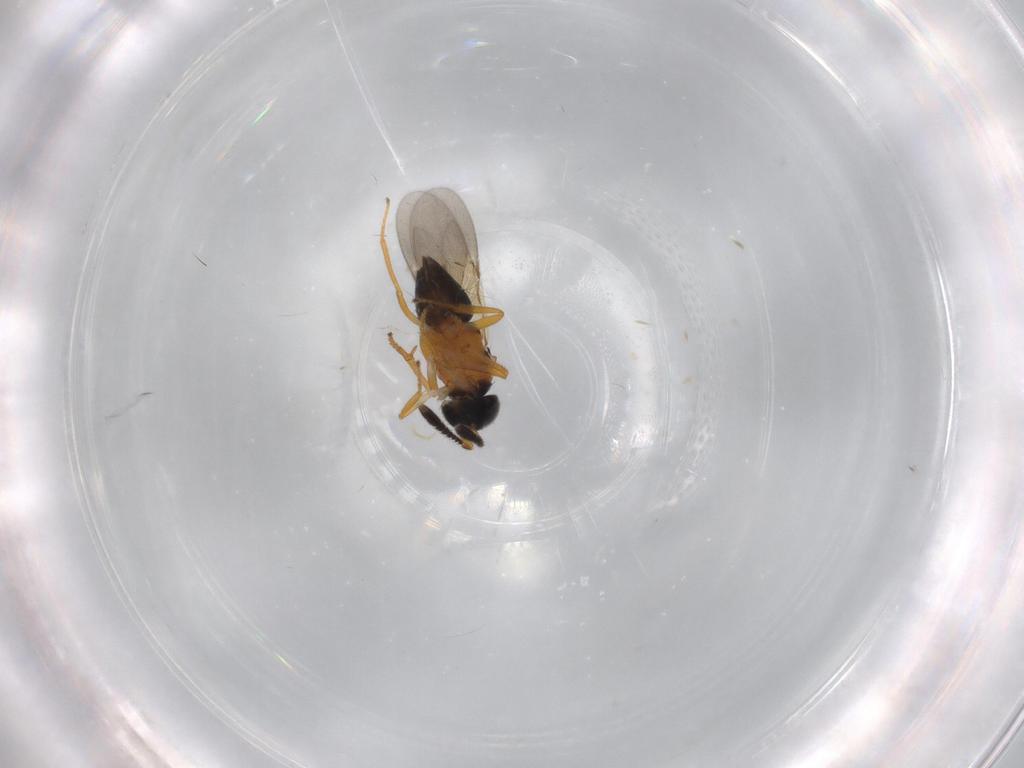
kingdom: Animalia
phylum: Arthropoda
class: Insecta
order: Hymenoptera
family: Encyrtidae
